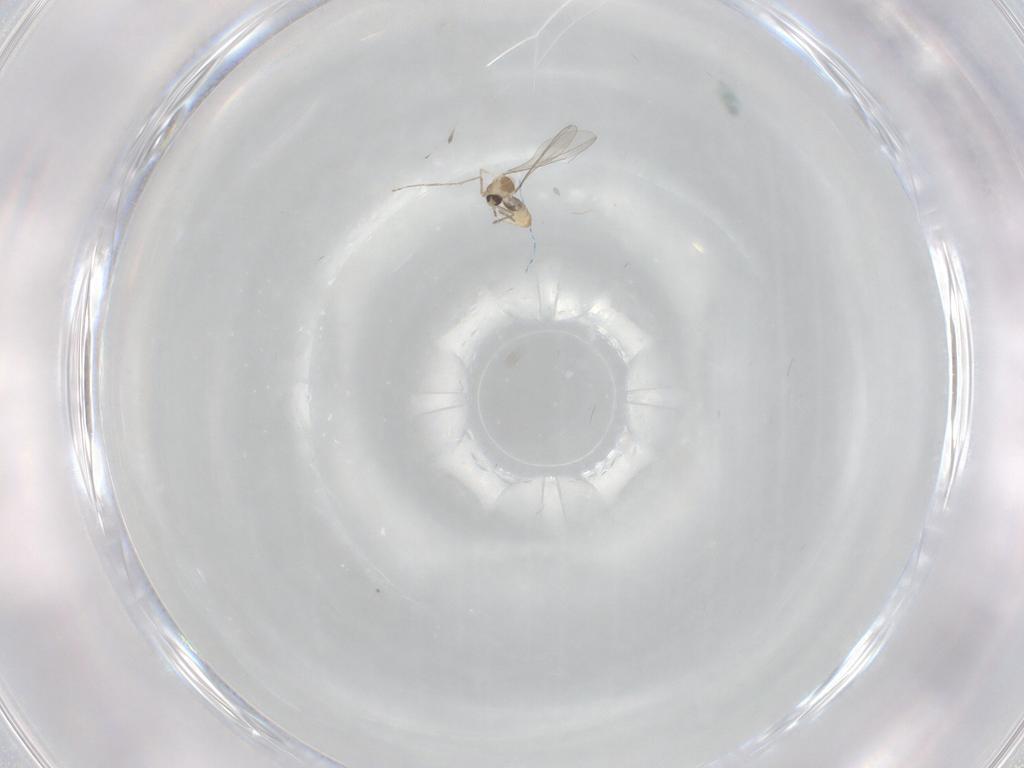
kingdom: Animalia
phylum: Arthropoda
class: Insecta
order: Diptera
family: Cecidomyiidae
